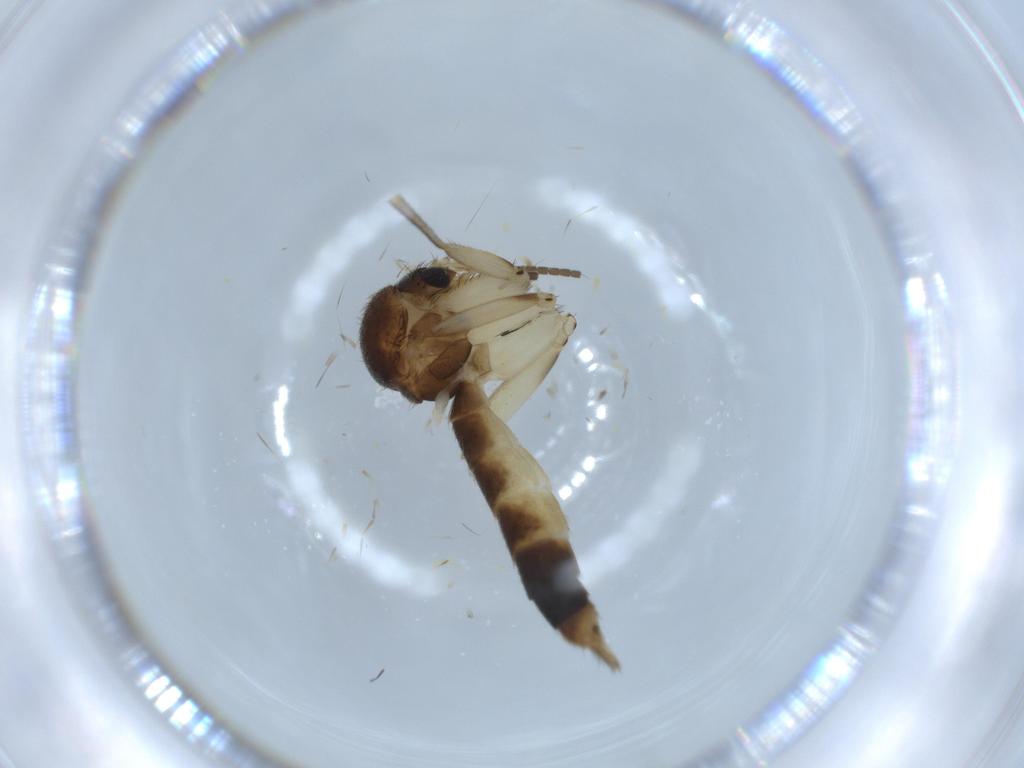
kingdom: Animalia
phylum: Arthropoda
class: Insecta
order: Diptera
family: Mycetophilidae
